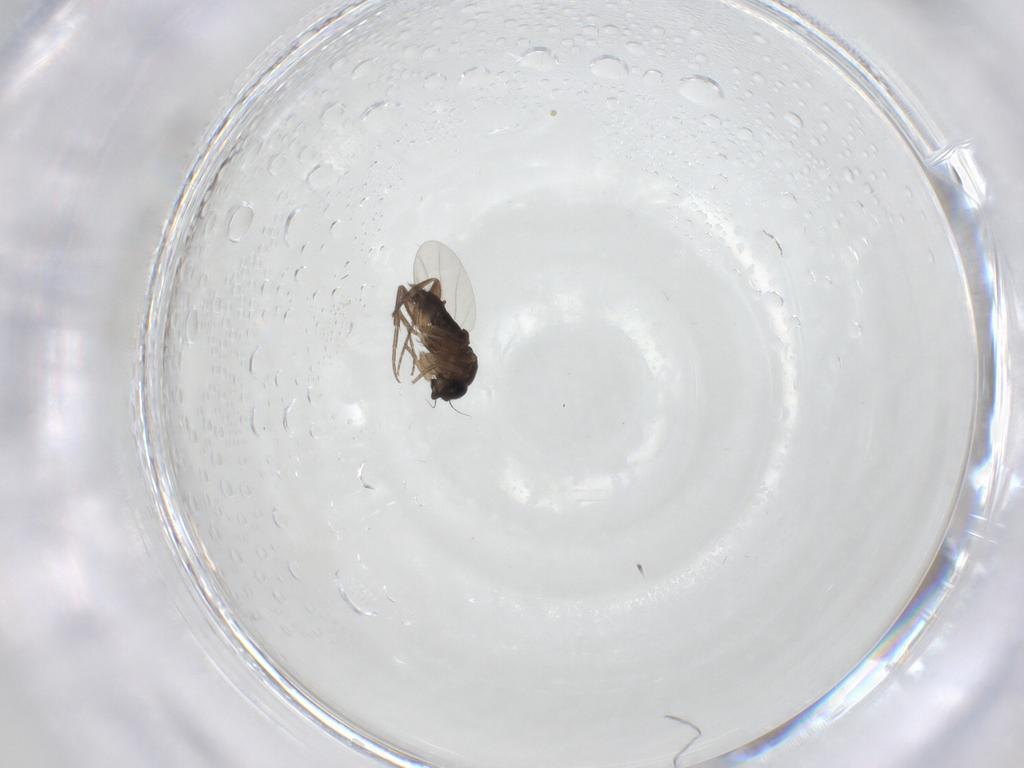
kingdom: Animalia
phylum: Arthropoda
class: Insecta
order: Diptera
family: Phoridae
